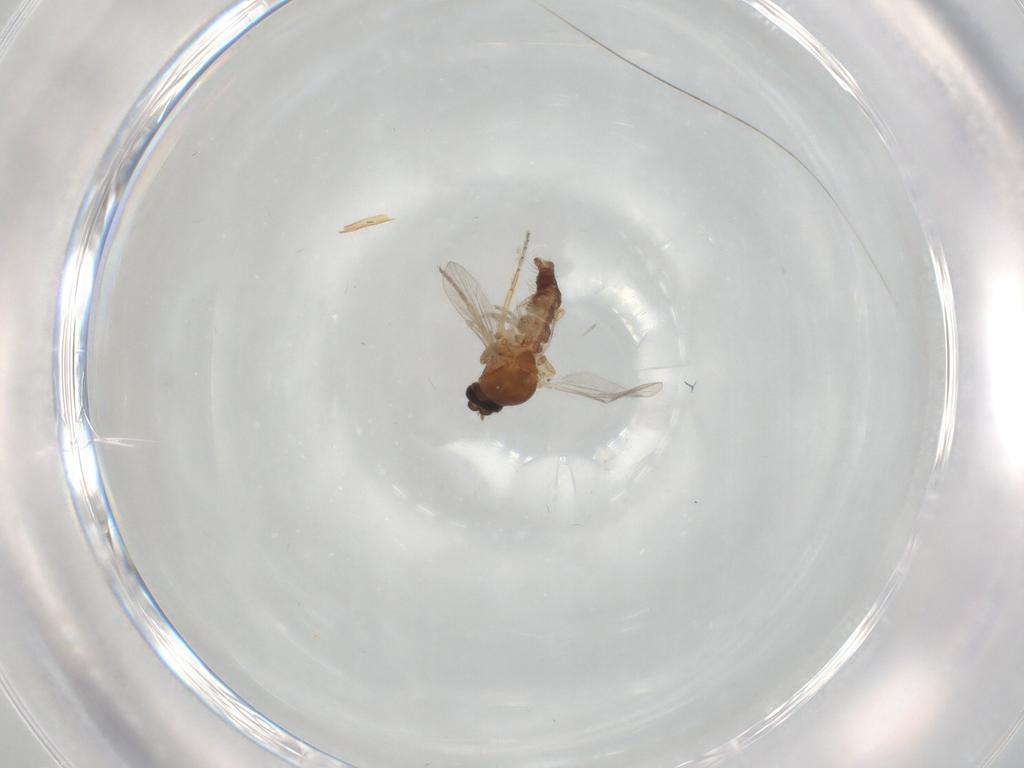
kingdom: Animalia
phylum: Arthropoda
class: Insecta
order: Diptera
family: Ceratopogonidae
